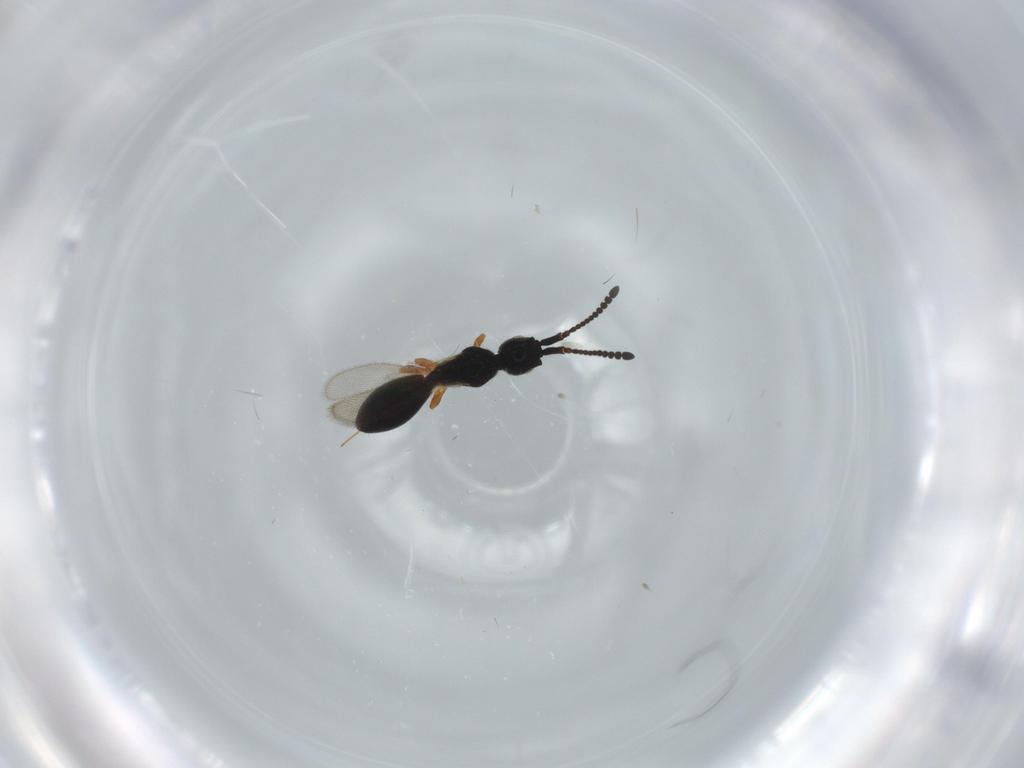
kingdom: Animalia
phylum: Arthropoda
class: Insecta
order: Hymenoptera
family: Diapriidae
